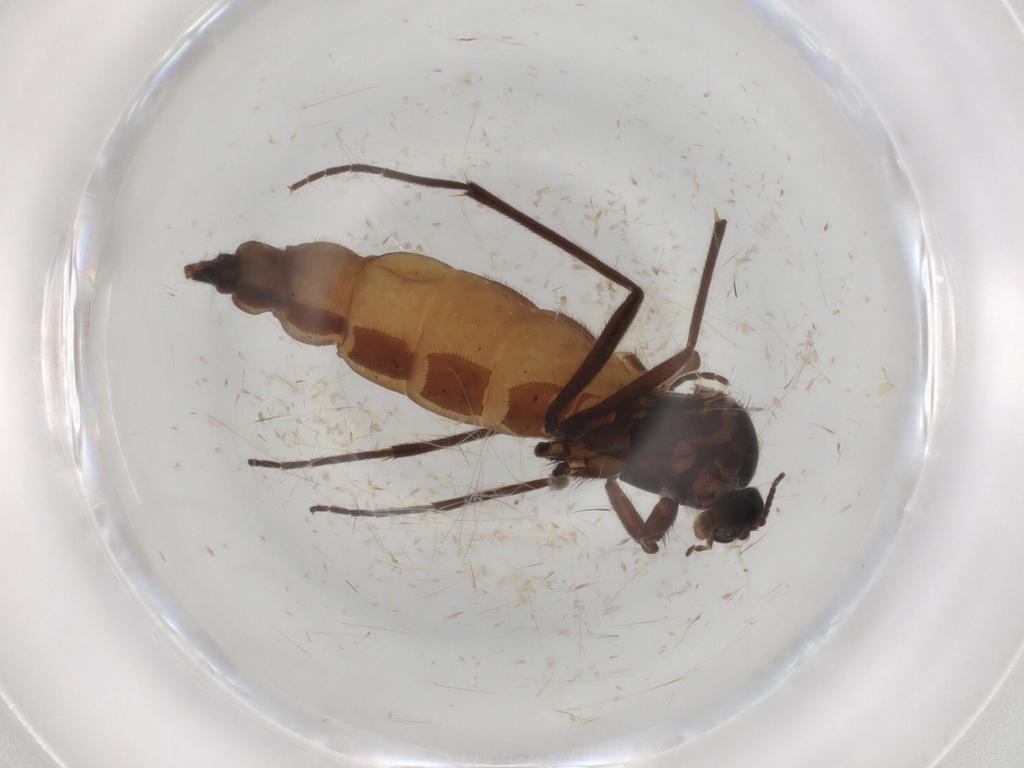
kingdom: Animalia
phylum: Arthropoda
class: Insecta
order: Diptera
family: Sciaridae
